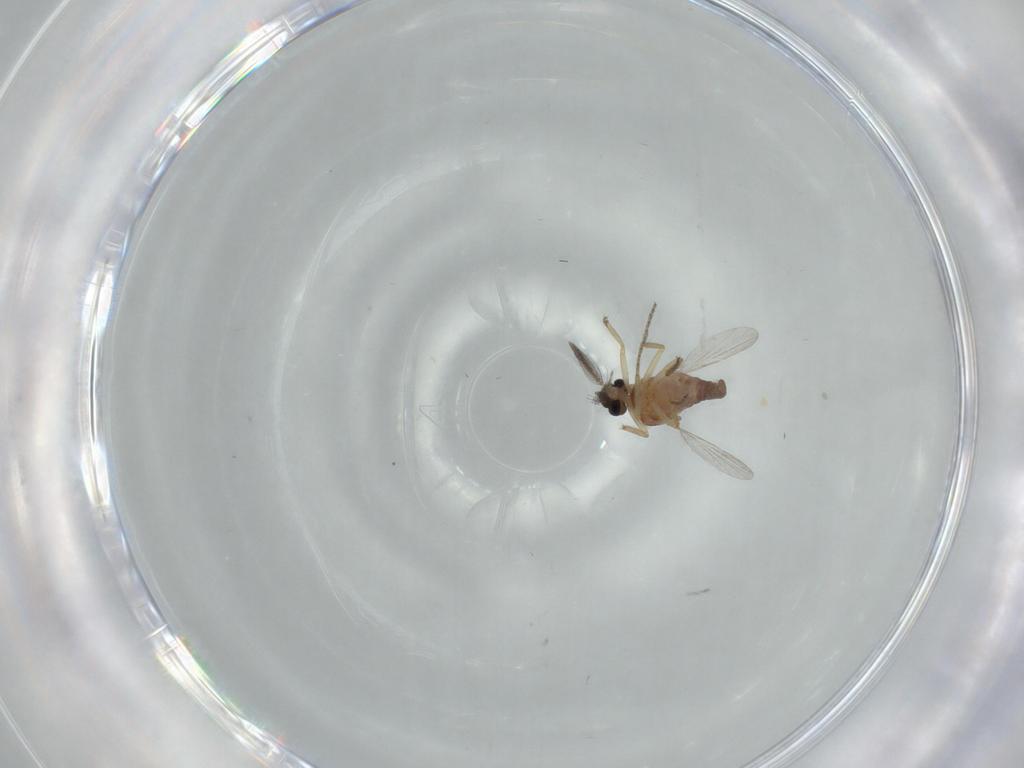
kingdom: Animalia
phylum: Arthropoda
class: Insecta
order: Diptera
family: Ceratopogonidae
